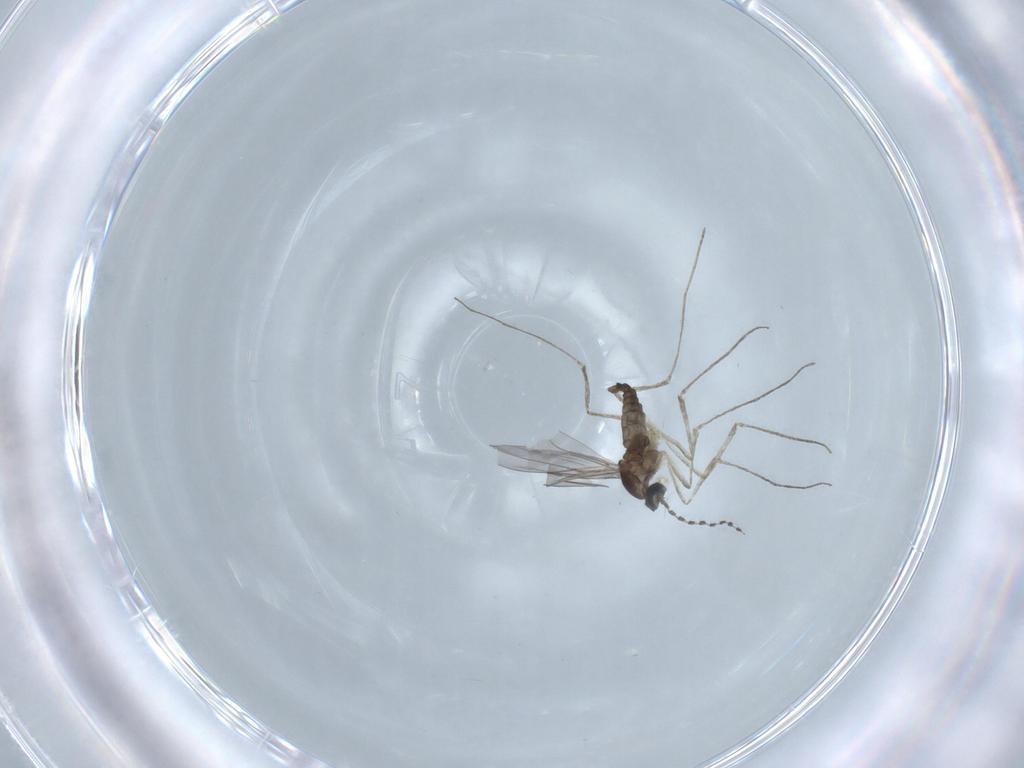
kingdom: Animalia
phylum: Arthropoda
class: Insecta
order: Diptera
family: Cecidomyiidae
